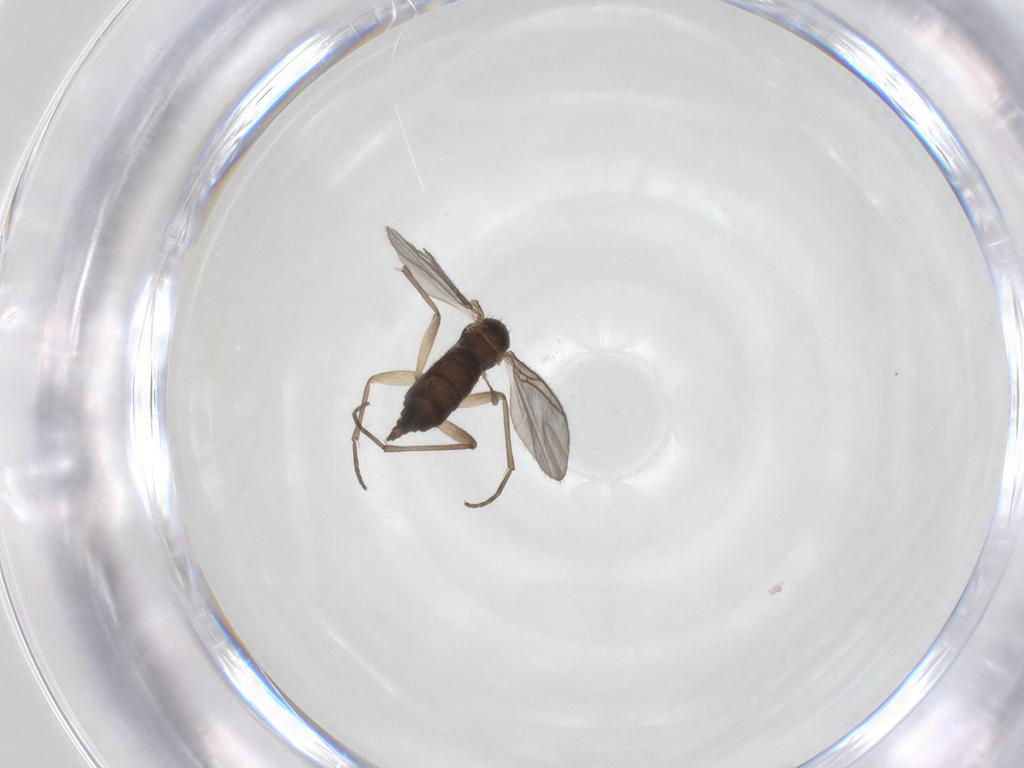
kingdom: Animalia
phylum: Arthropoda
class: Insecta
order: Diptera
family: Sciaridae
